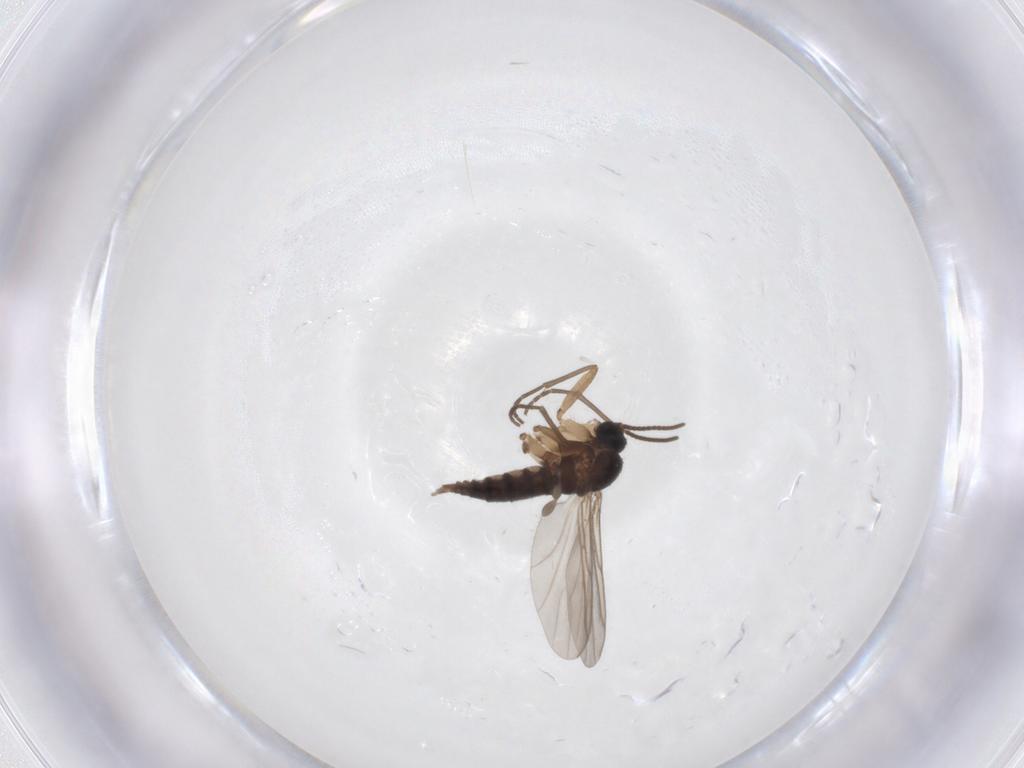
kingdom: Animalia
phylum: Arthropoda
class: Insecta
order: Diptera
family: Sciaridae
